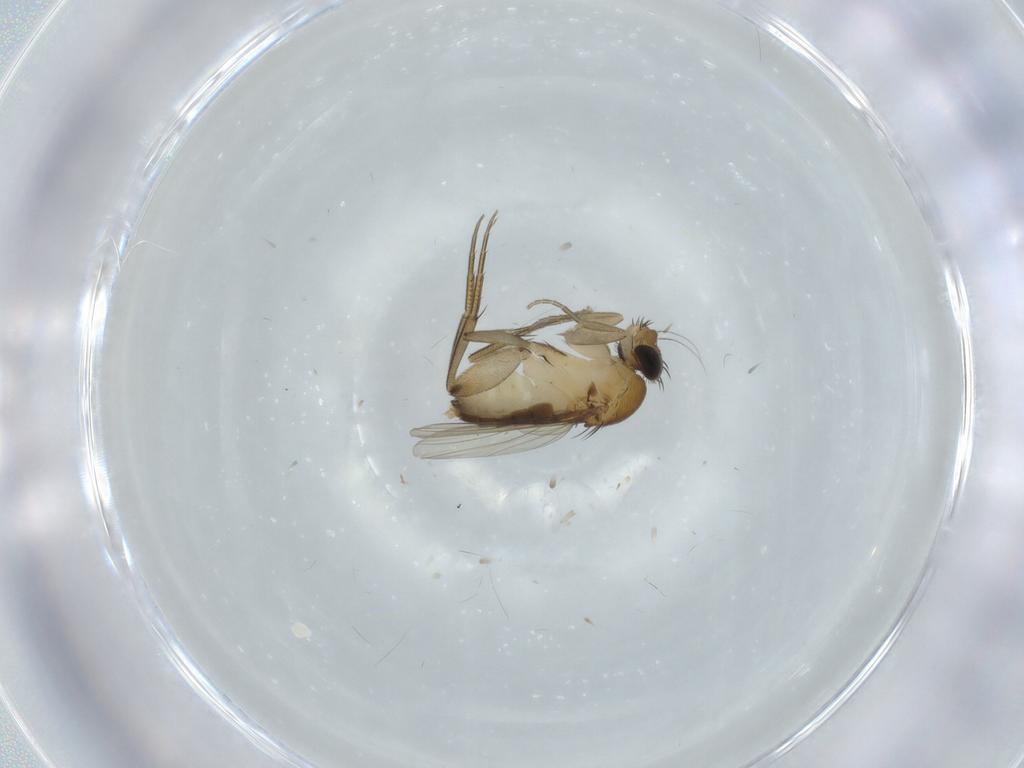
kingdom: Animalia
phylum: Arthropoda
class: Insecta
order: Diptera
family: Phoridae
